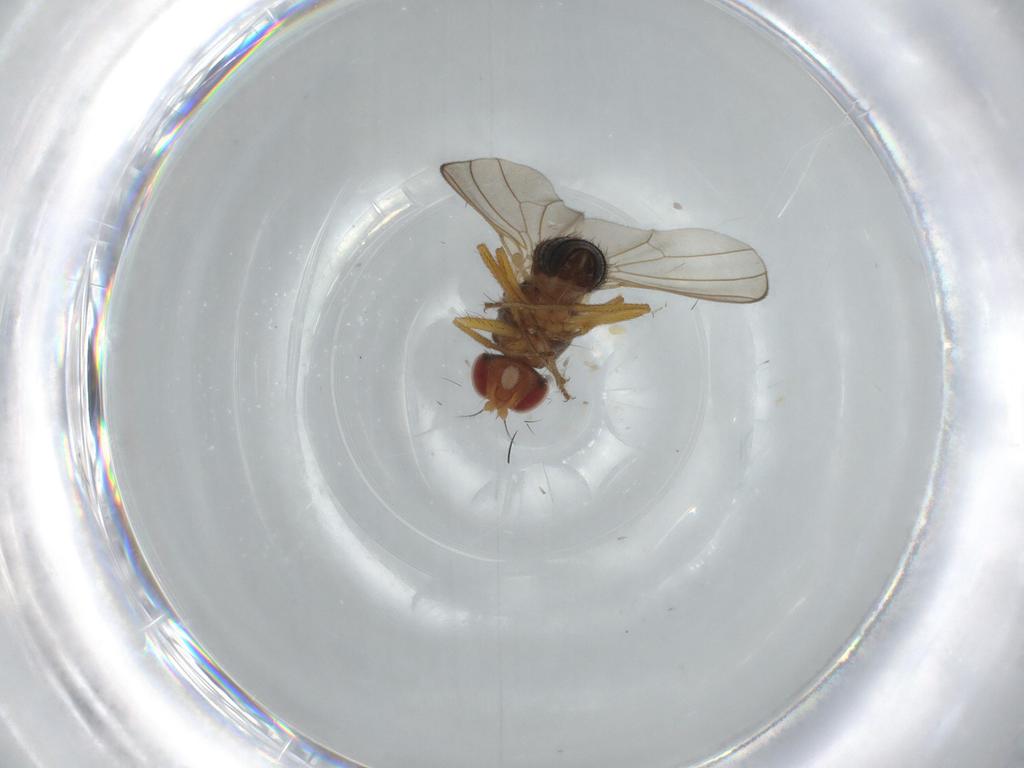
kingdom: Animalia
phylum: Arthropoda
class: Insecta
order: Diptera
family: Drosophilidae
